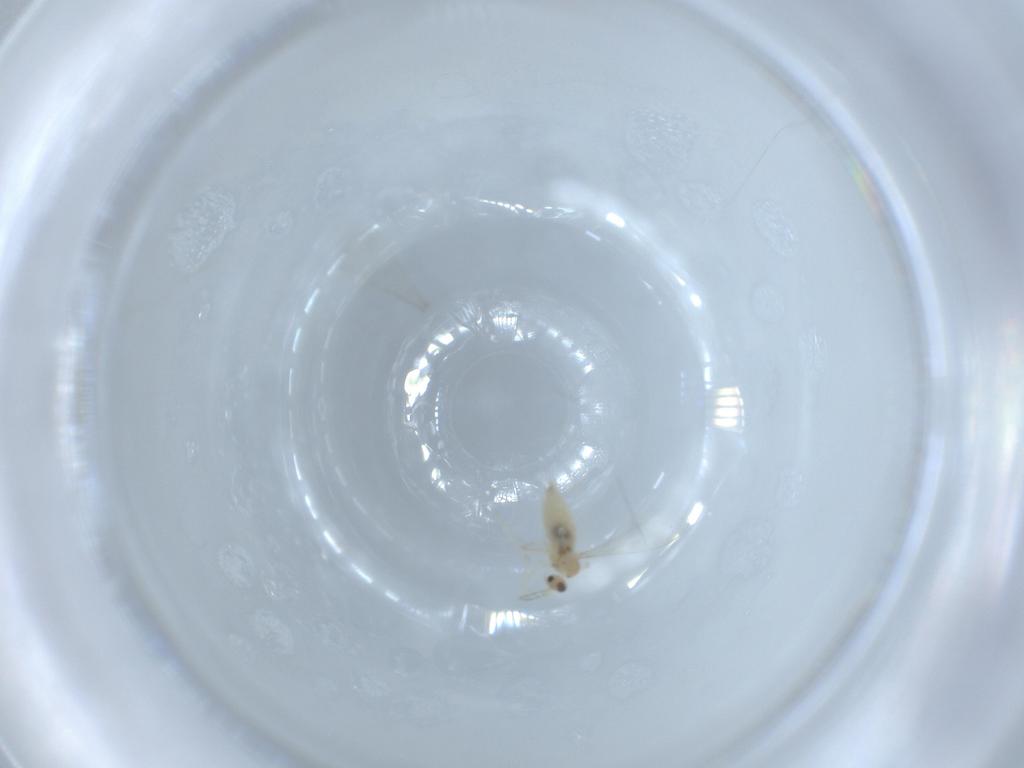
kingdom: Animalia
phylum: Arthropoda
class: Insecta
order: Diptera
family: Cecidomyiidae
